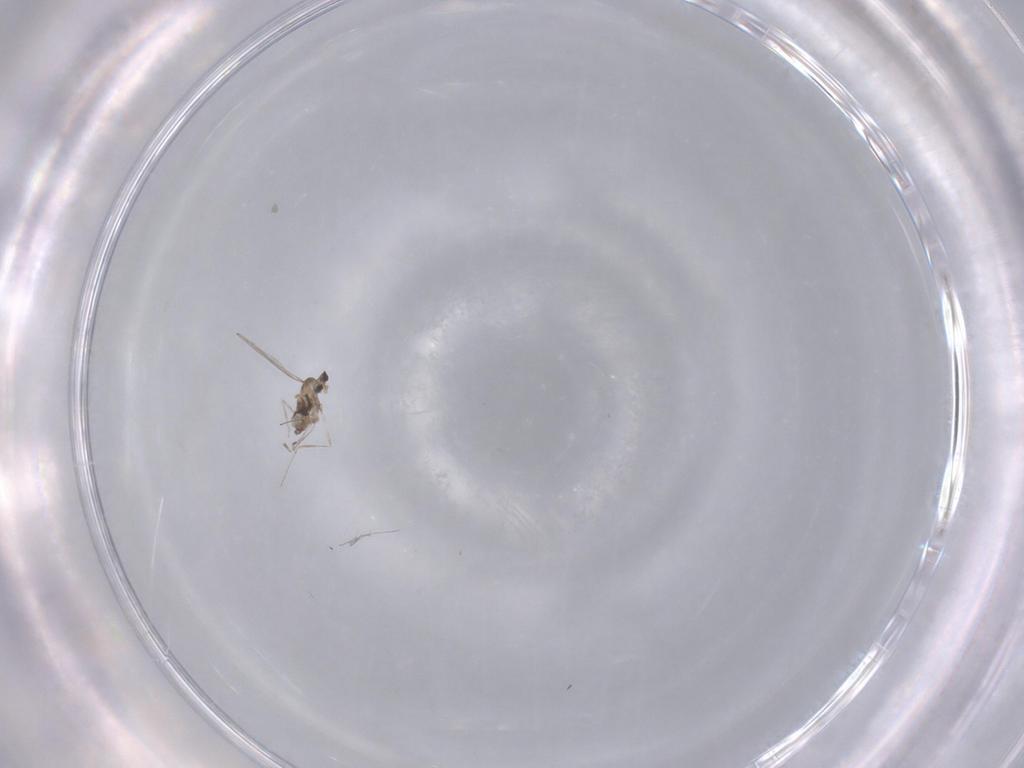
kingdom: Animalia
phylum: Arthropoda
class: Insecta
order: Diptera
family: Cecidomyiidae
